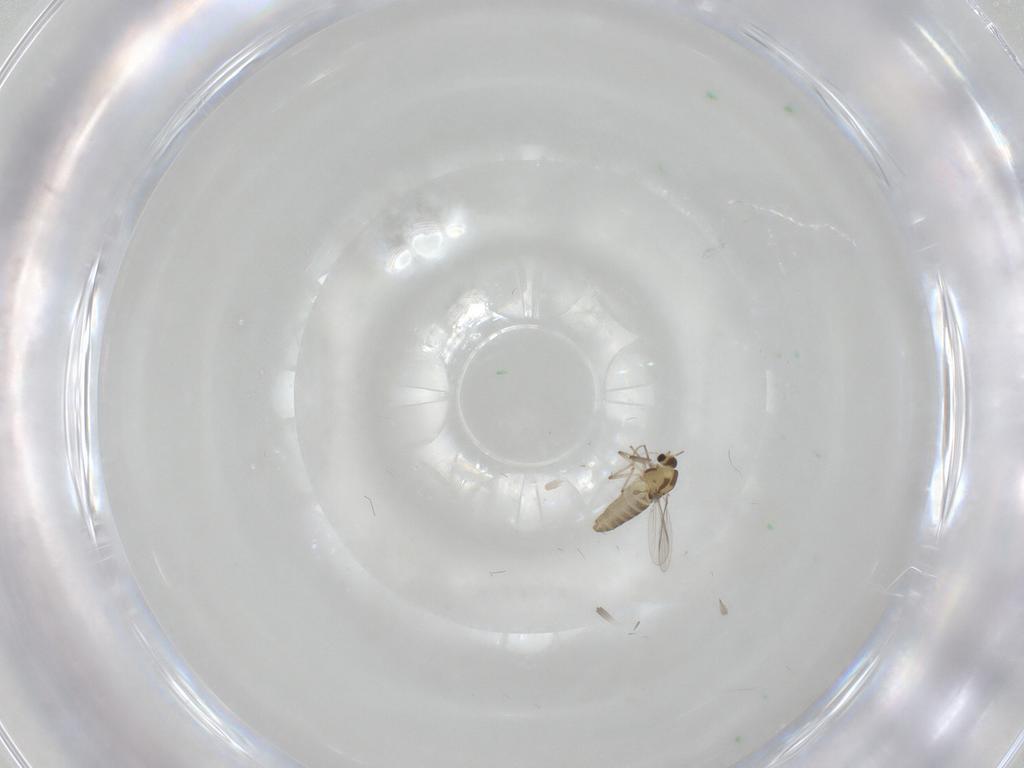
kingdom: Animalia
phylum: Arthropoda
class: Insecta
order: Diptera
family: Chironomidae
